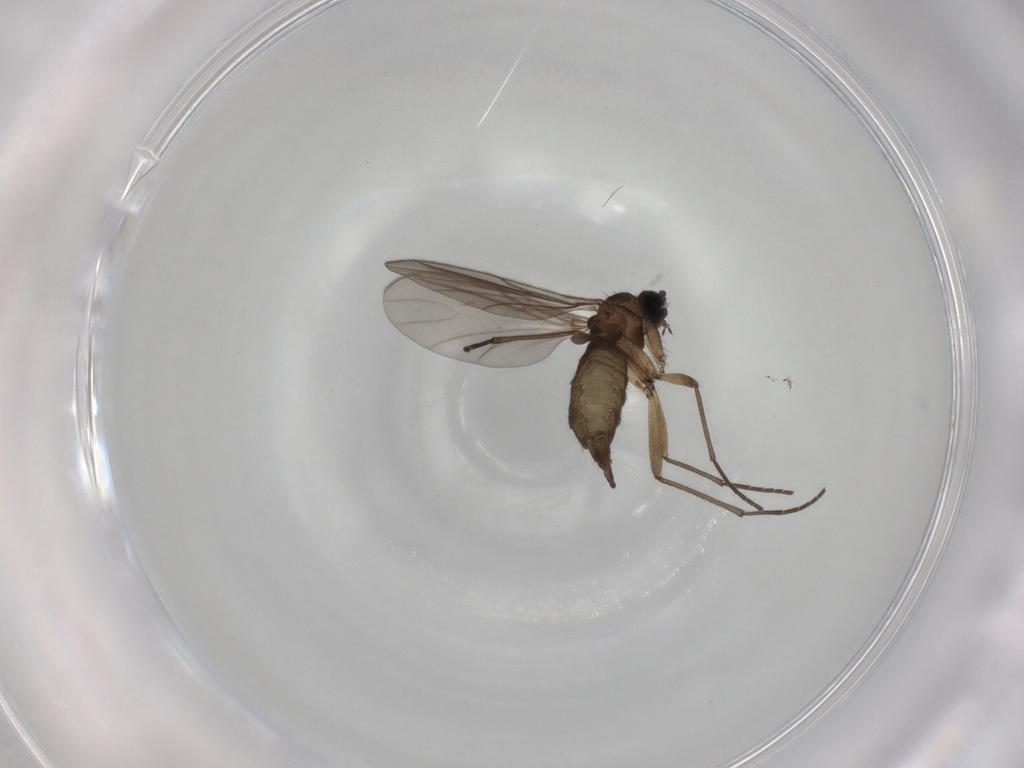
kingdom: Animalia
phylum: Arthropoda
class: Insecta
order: Diptera
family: Sciaridae
